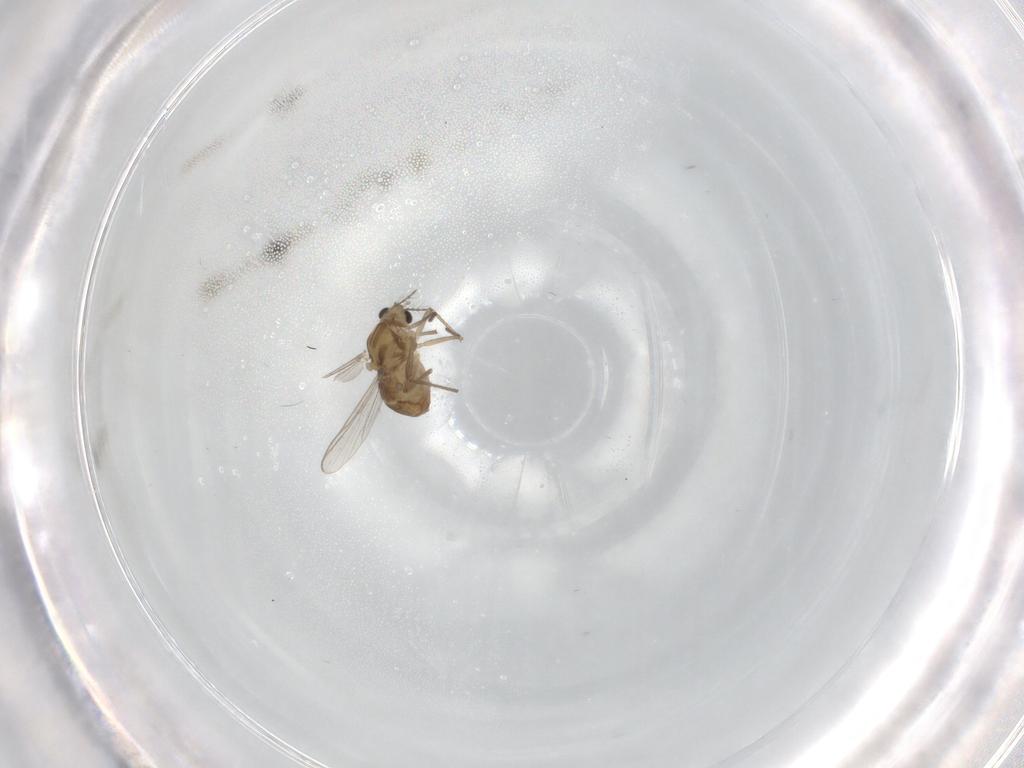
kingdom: Animalia
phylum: Arthropoda
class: Insecta
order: Diptera
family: Chironomidae
